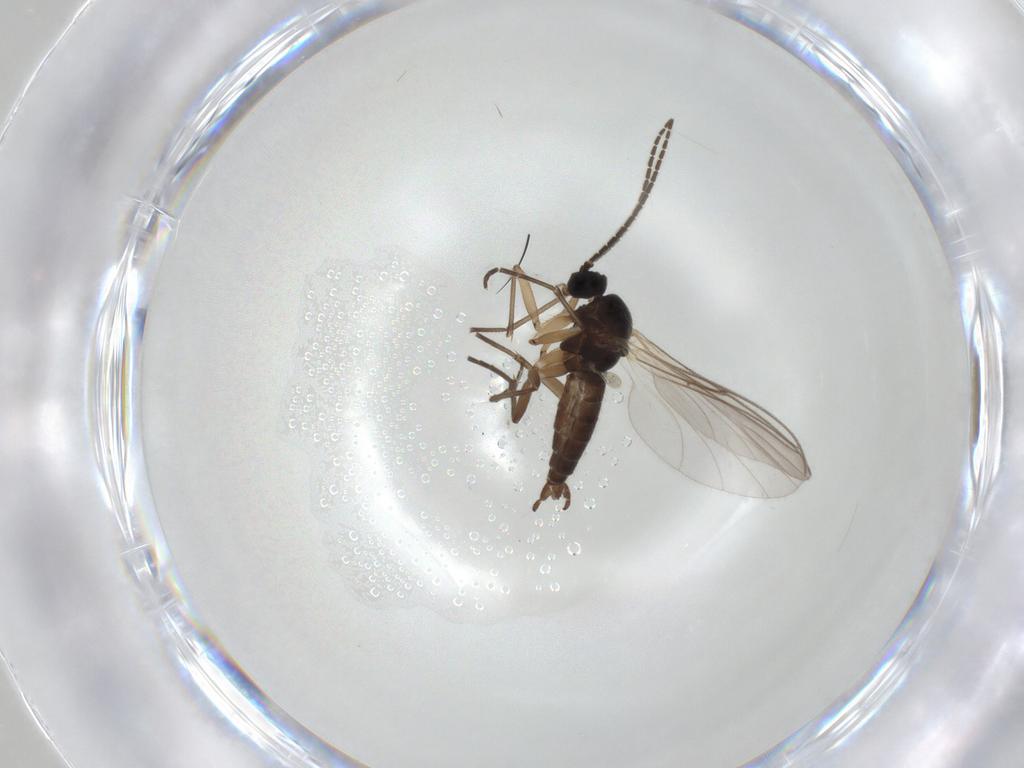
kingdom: Animalia
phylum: Arthropoda
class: Insecta
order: Diptera
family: Sciaridae
